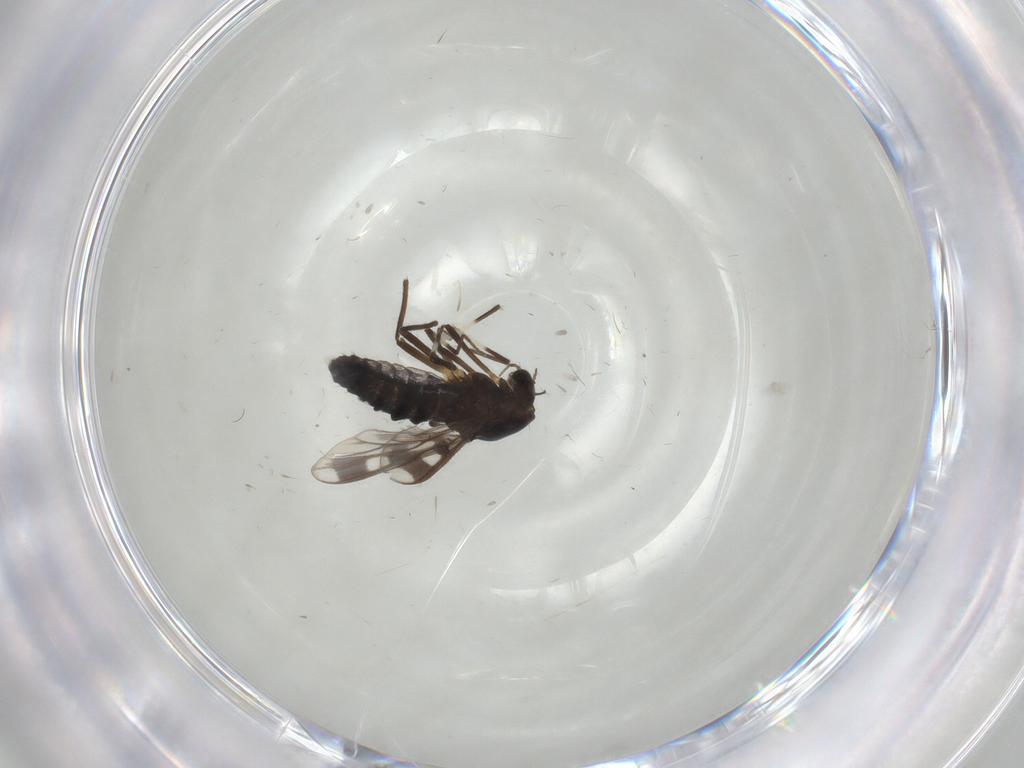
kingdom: Animalia
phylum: Arthropoda
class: Insecta
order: Diptera
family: Chironomidae
